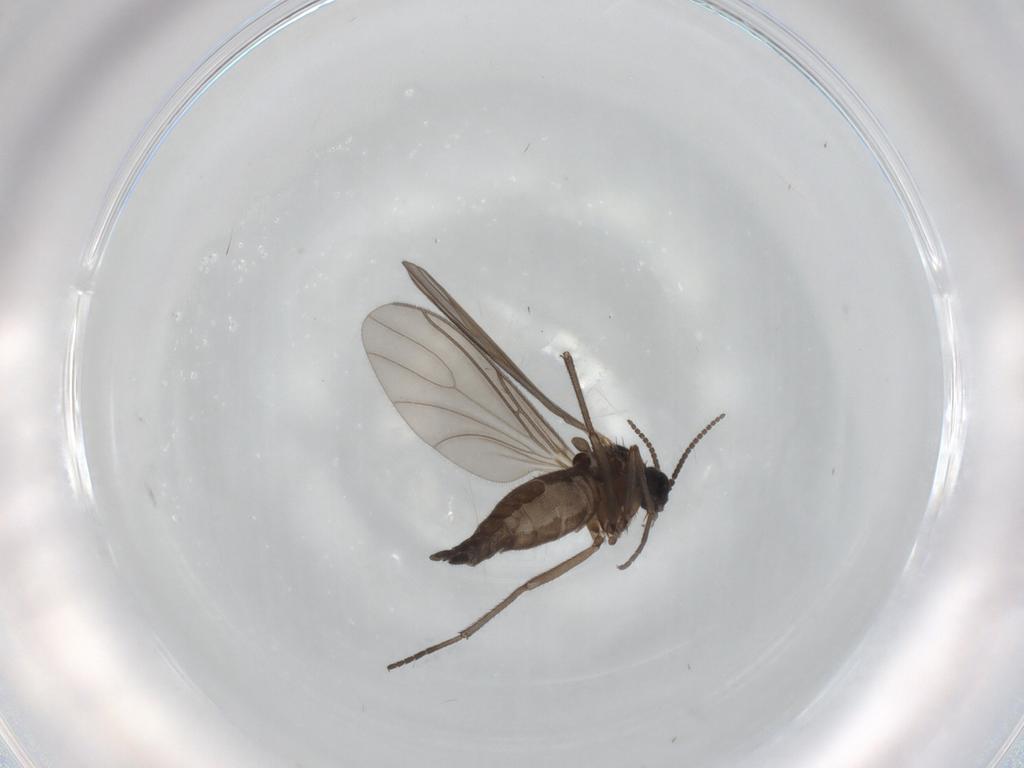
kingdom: Animalia
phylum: Arthropoda
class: Insecta
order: Diptera
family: Sciaridae
